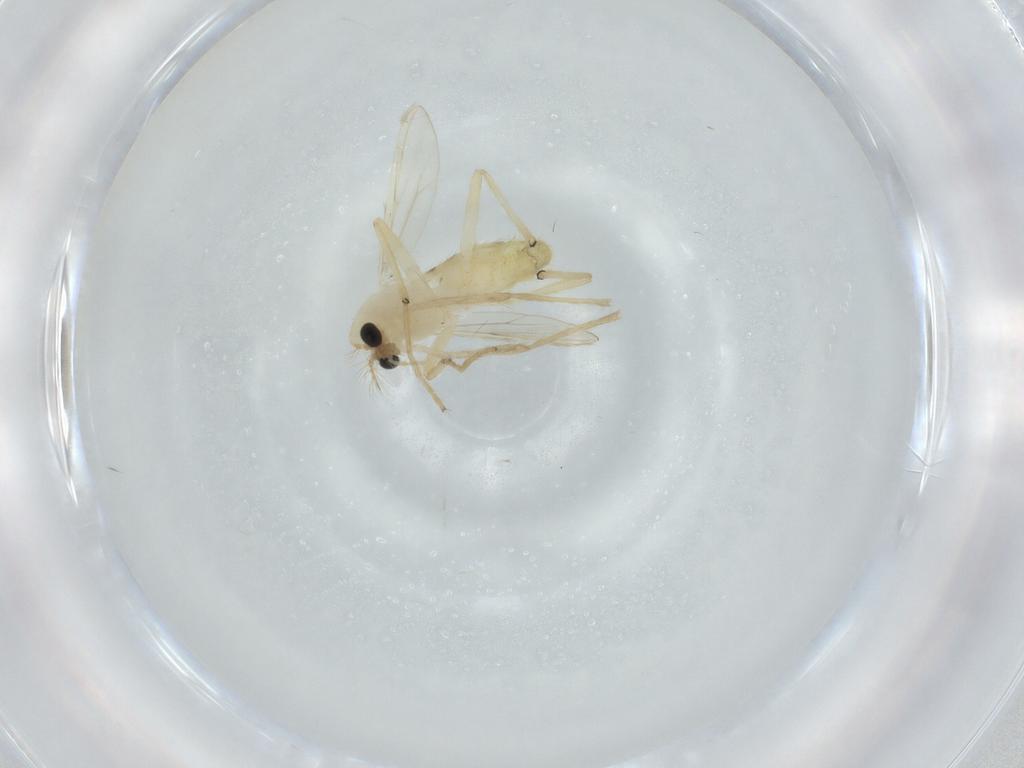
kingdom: Animalia
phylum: Arthropoda
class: Insecta
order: Diptera
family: Chironomidae
